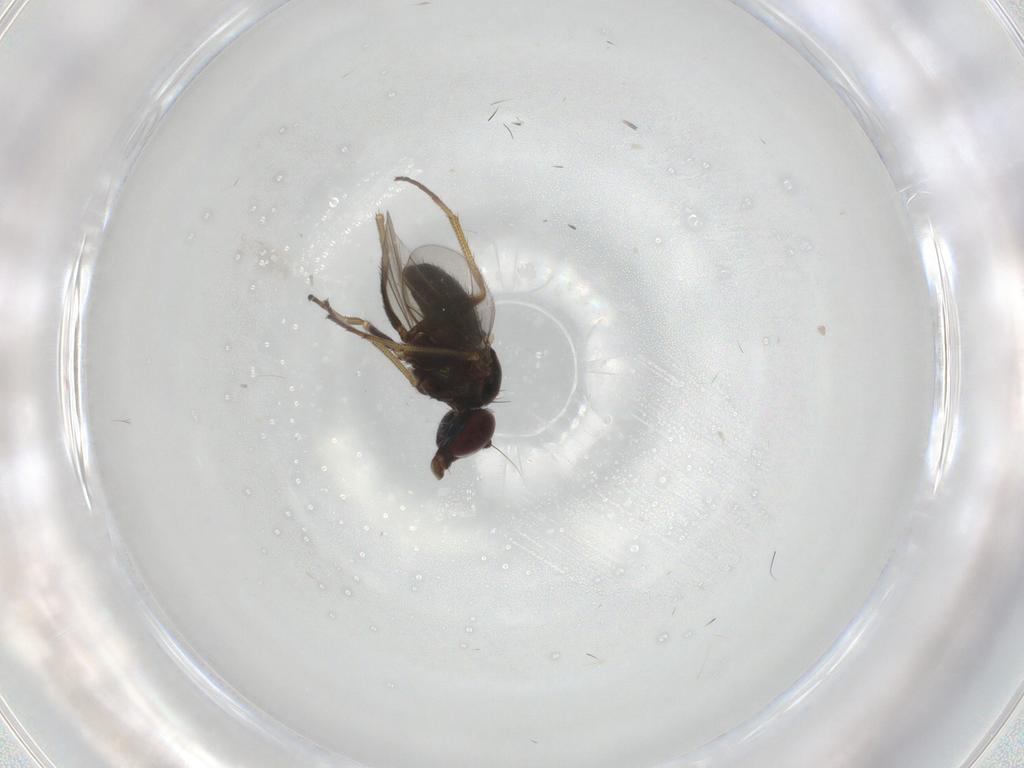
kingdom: Animalia
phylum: Arthropoda
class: Insecta
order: Diptera
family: Dolichopodidae
